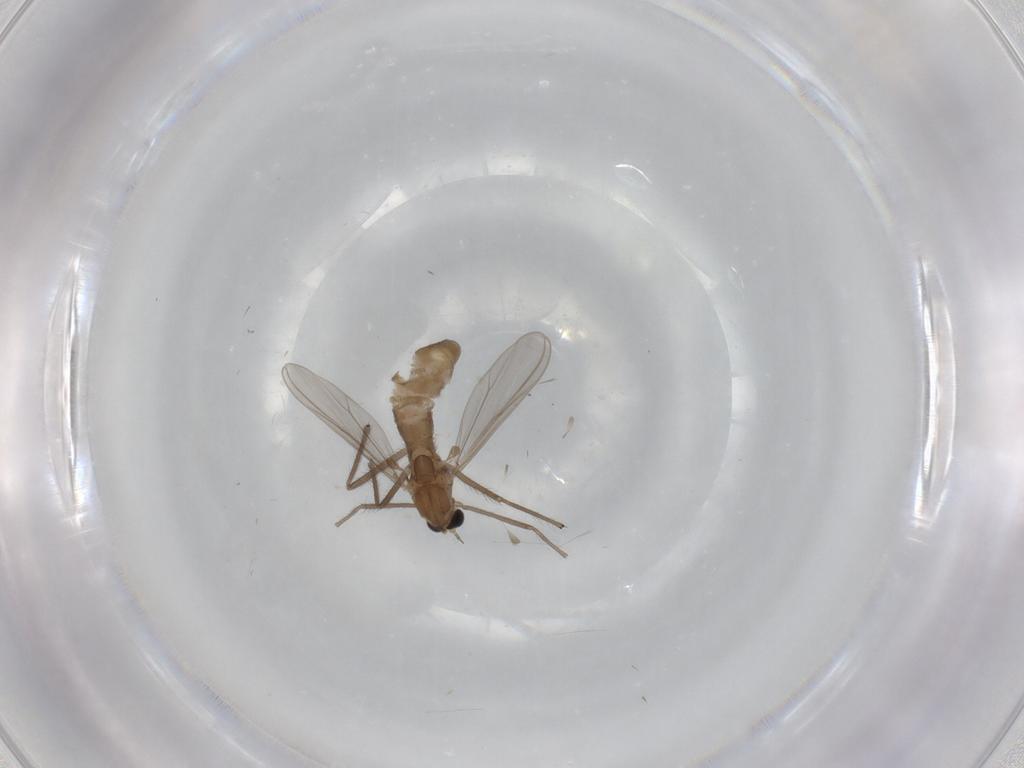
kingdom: Animalia
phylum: Arthropoda
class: Insecta
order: Diptera
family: Chironomidae
